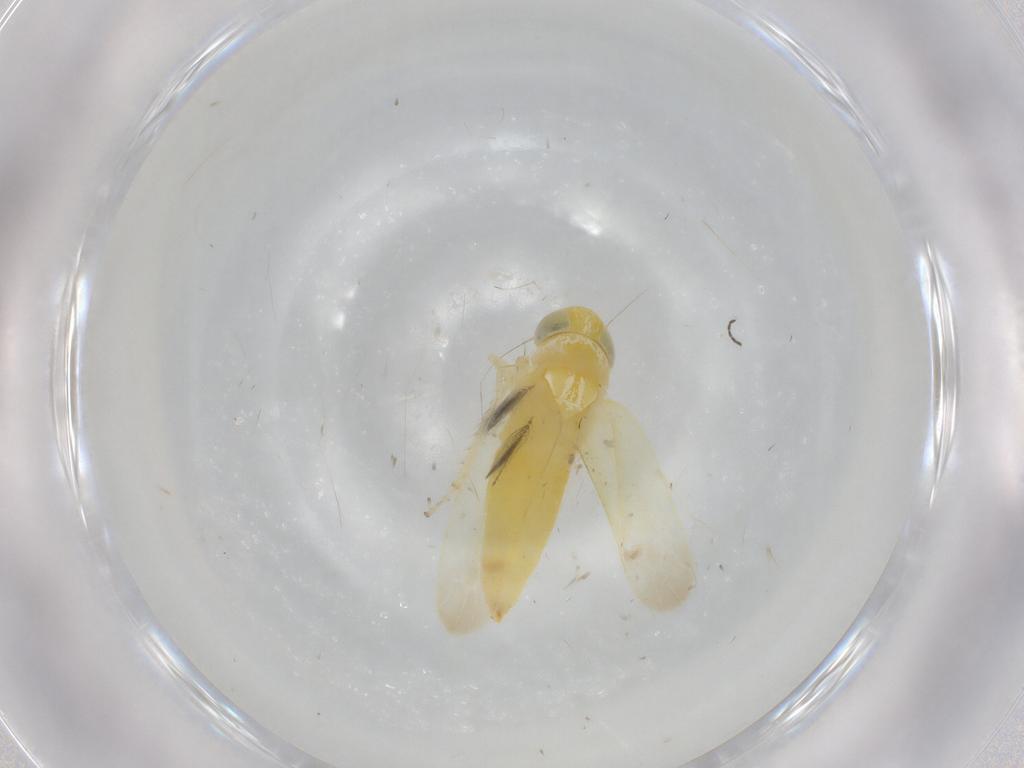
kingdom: Animalia
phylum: Arthropoda
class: Insecta
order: Hemiptera
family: Cicadellidae
